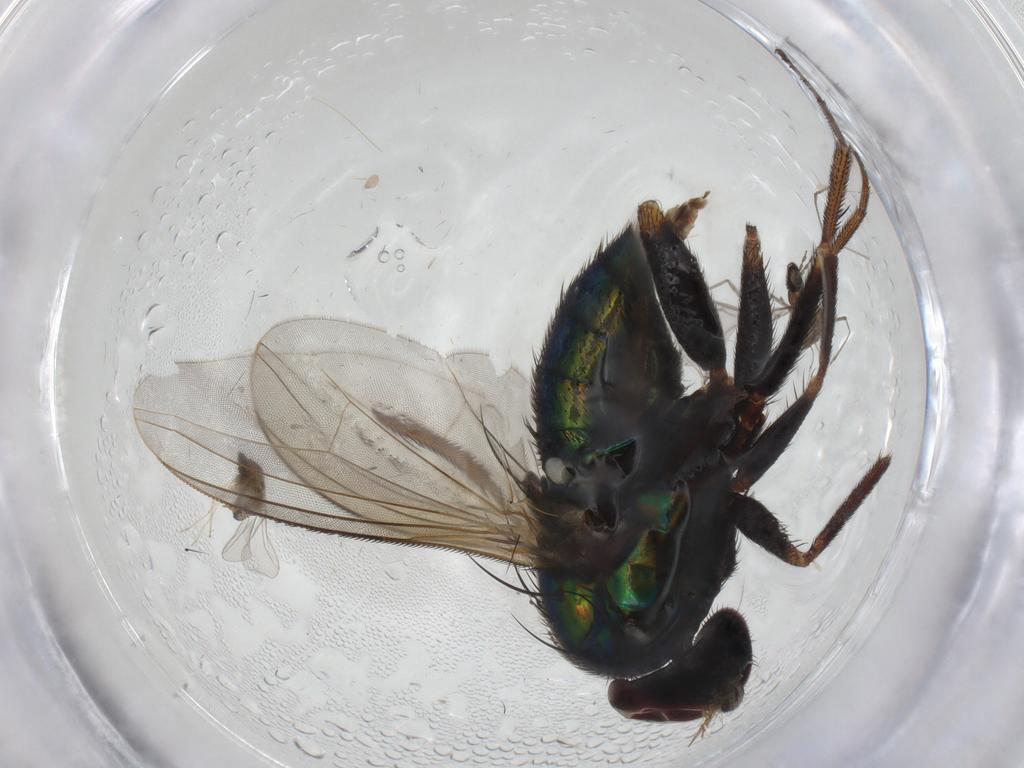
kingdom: Animalia
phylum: Arthropoda
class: Insecta
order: Diptera
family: Dolichopodidae
